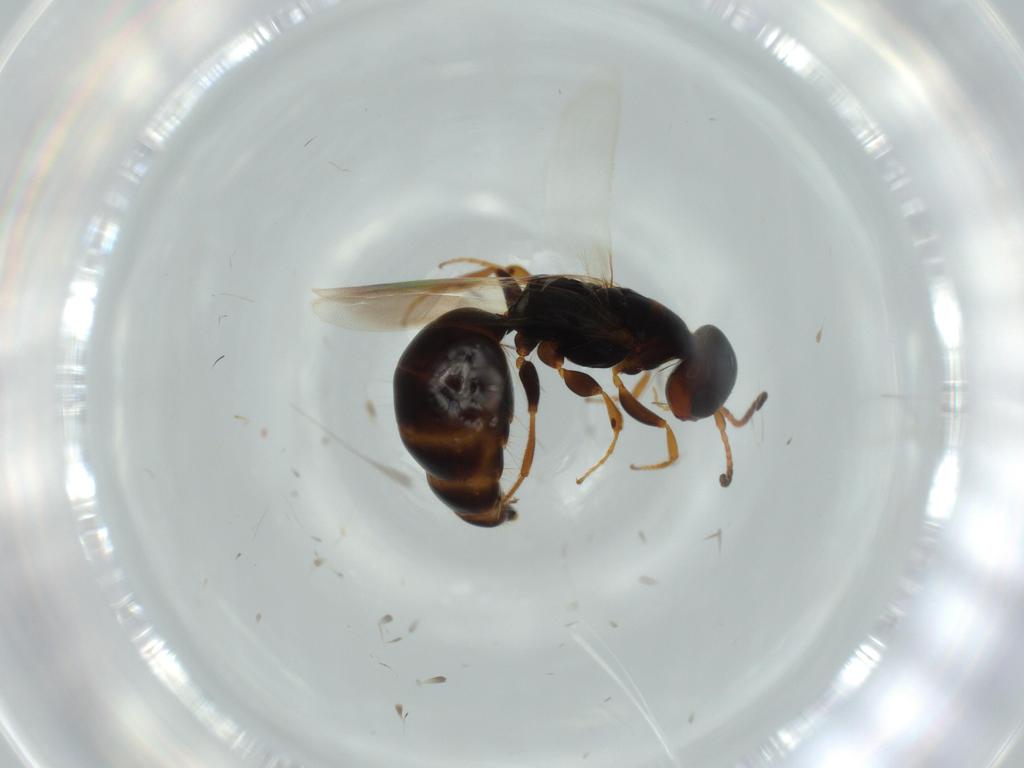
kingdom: Animalia
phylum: Arthropoda
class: Insecta
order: Hymenoptera
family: Bethylidae
